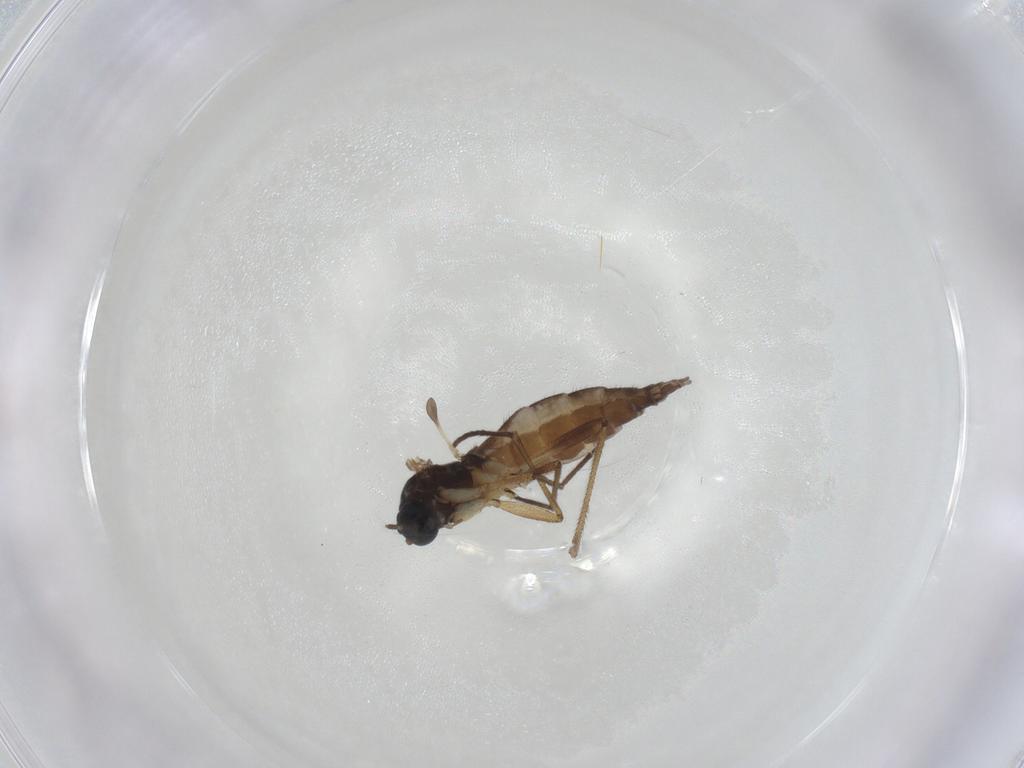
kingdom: Animalia
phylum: Arthropoda
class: Insecta
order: Diptera
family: Sciaridae
